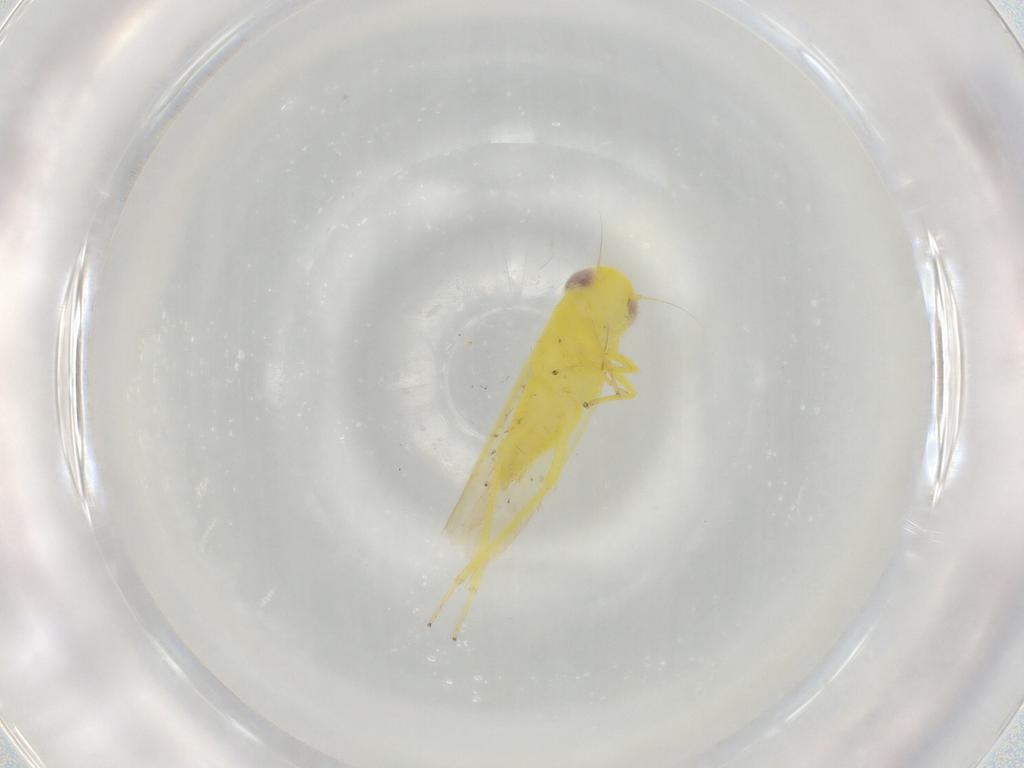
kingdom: Animalia
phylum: Arthropoda
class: Insecta
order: Hemiptera
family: Cicadellidae
